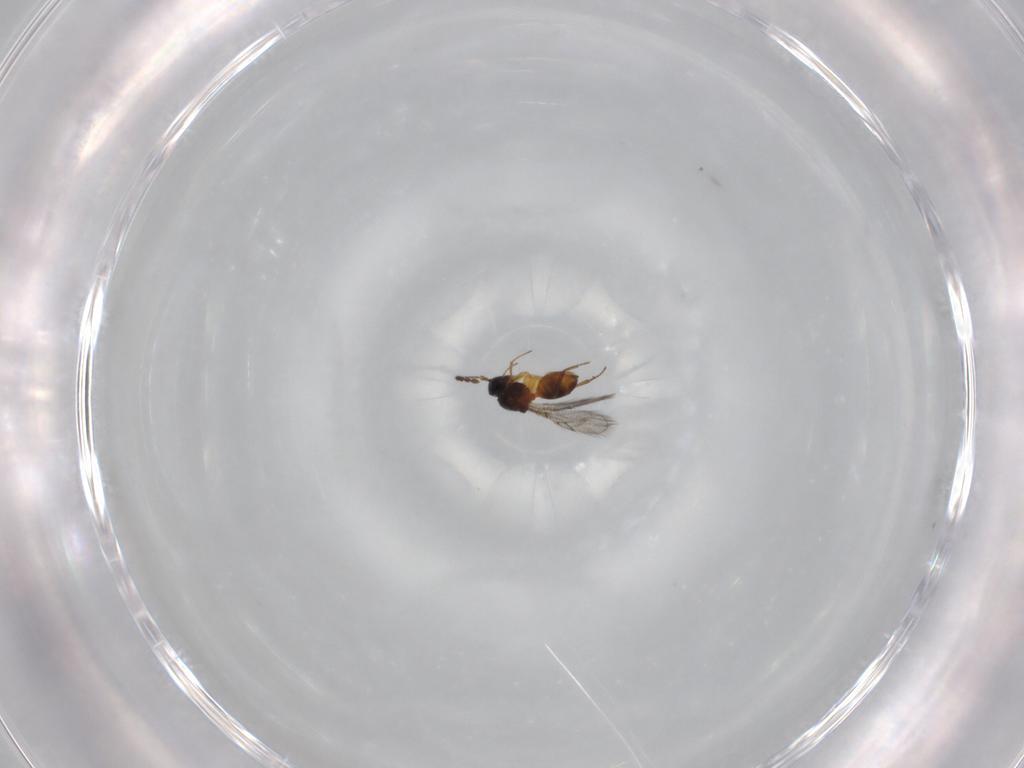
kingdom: Animalia
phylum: Arthropoda
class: Insecta
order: Hymenoptera
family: Figitidae
